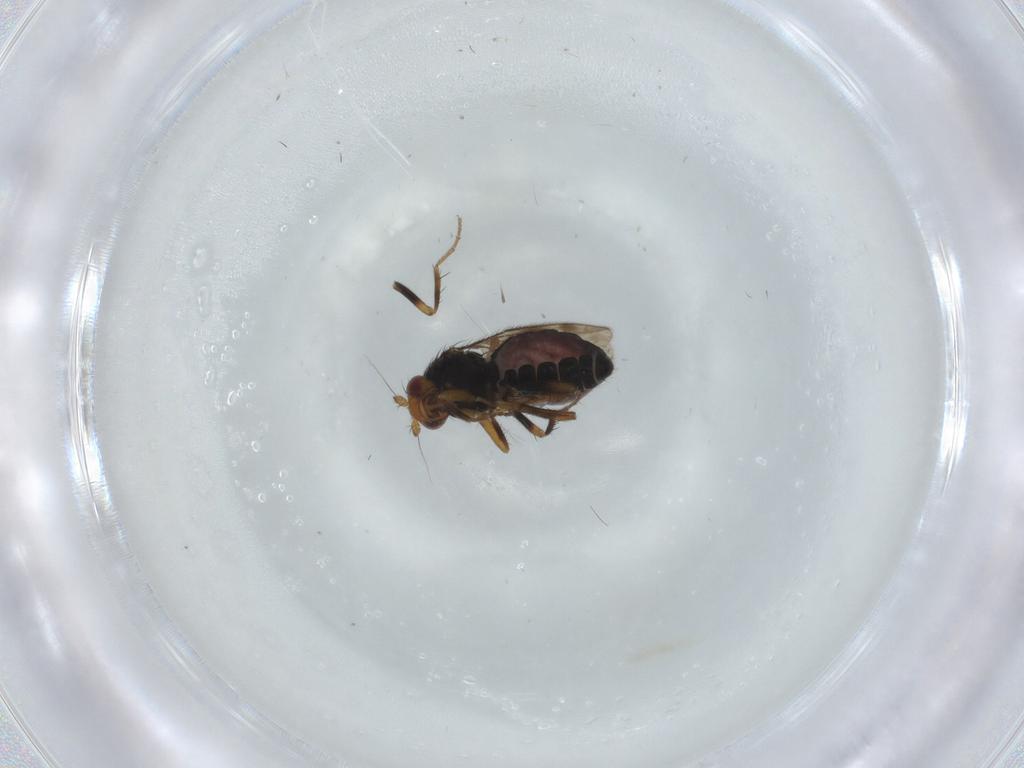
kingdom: Animalia
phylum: Arthropoda
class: Insecta
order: Diptera
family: Sphaeroceridae
